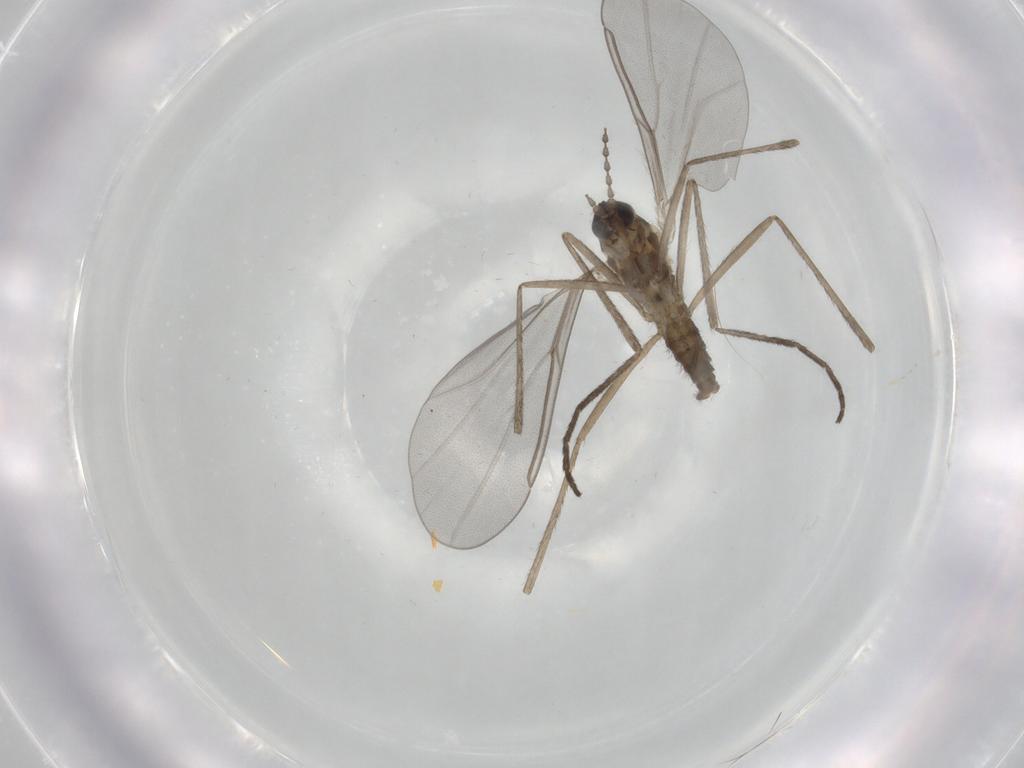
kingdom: Animalia
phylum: Arthropoda
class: Insecta
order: Diptera
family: Cecidomyiidae
